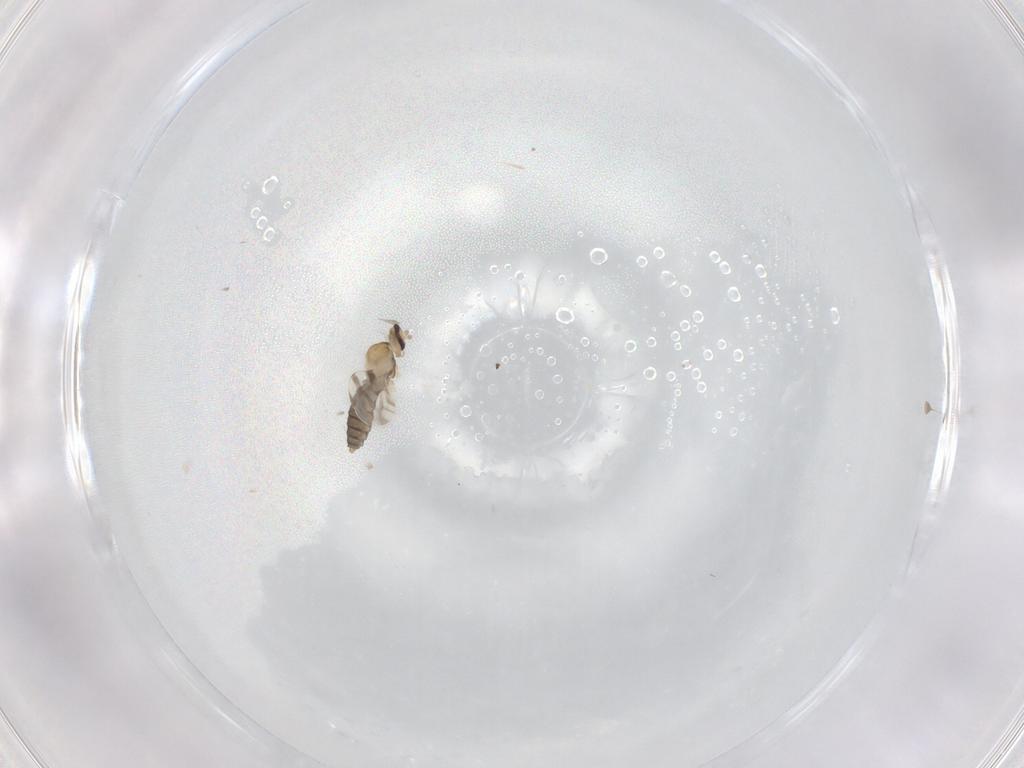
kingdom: Animalia
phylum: Arthropoda
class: Insecta
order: Diptera
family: Cecidomyiidae
